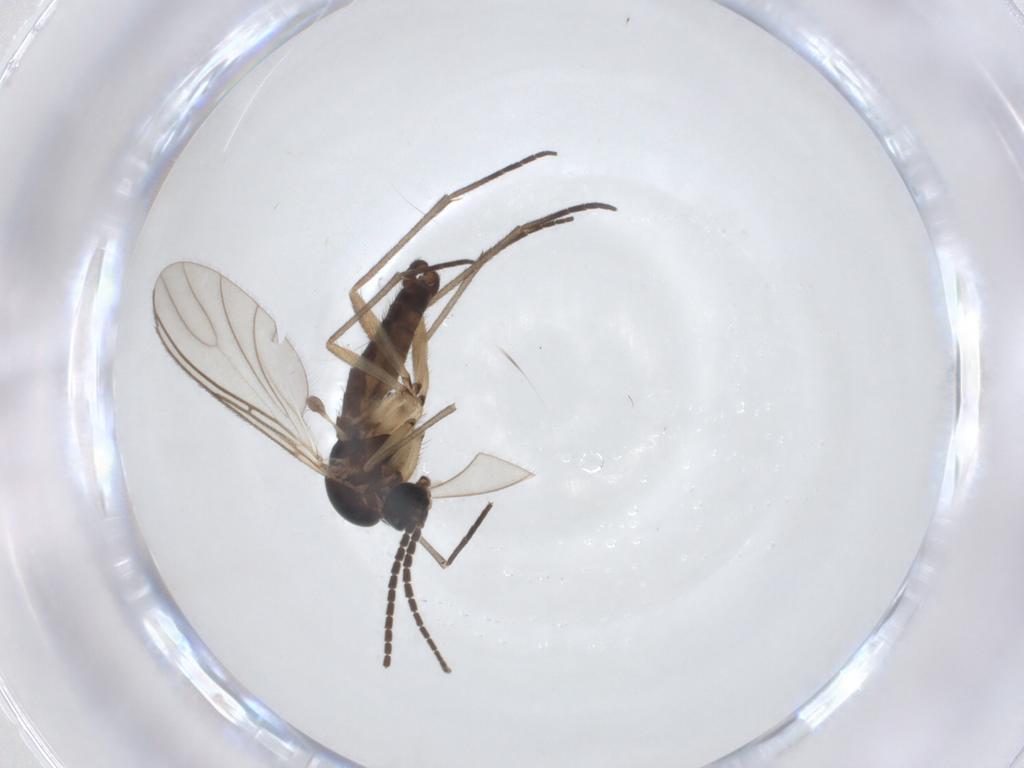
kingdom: Animalia
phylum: Arthropoda
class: Insecta
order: Diptera
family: Sciaridae
